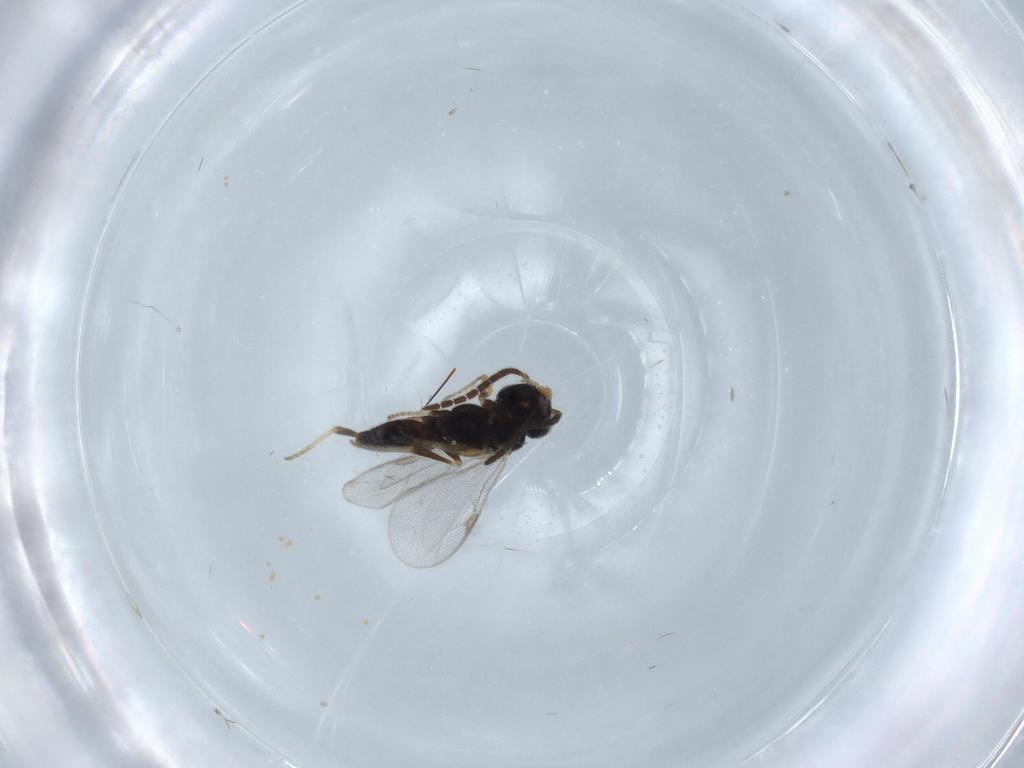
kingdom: Animalia
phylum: Arthropoda
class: Insecta
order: Hymenoptera
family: Dryinidae
